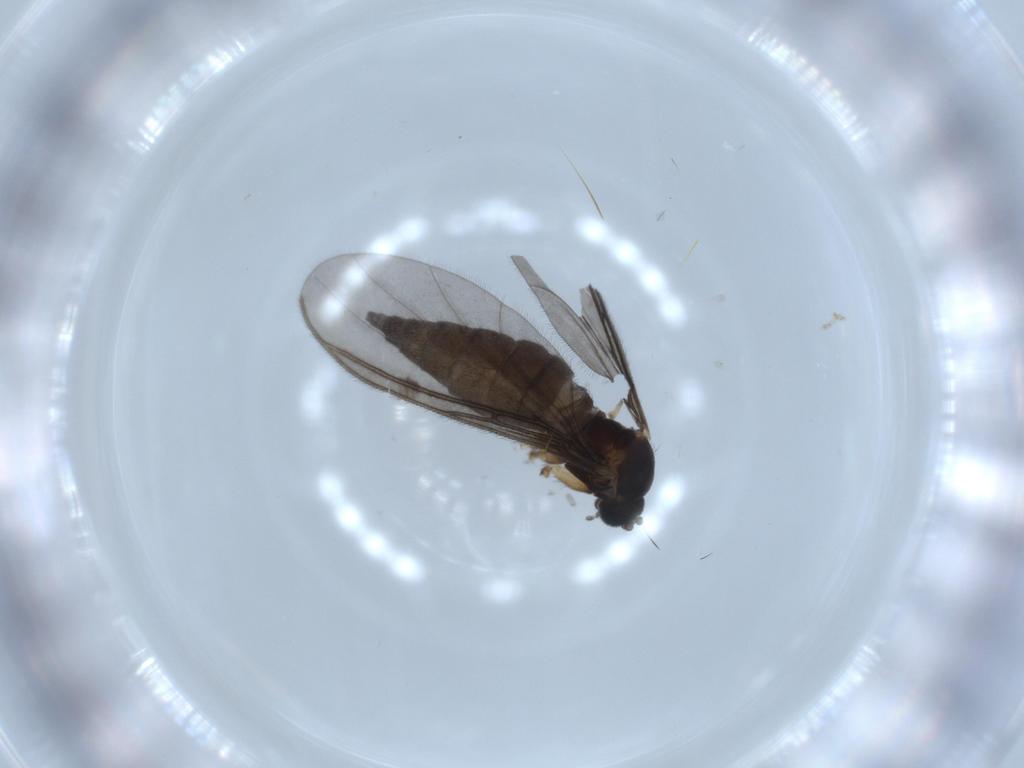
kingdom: Animalia
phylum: Arthropoda
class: Insecta
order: Diptera
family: Sciaridae
